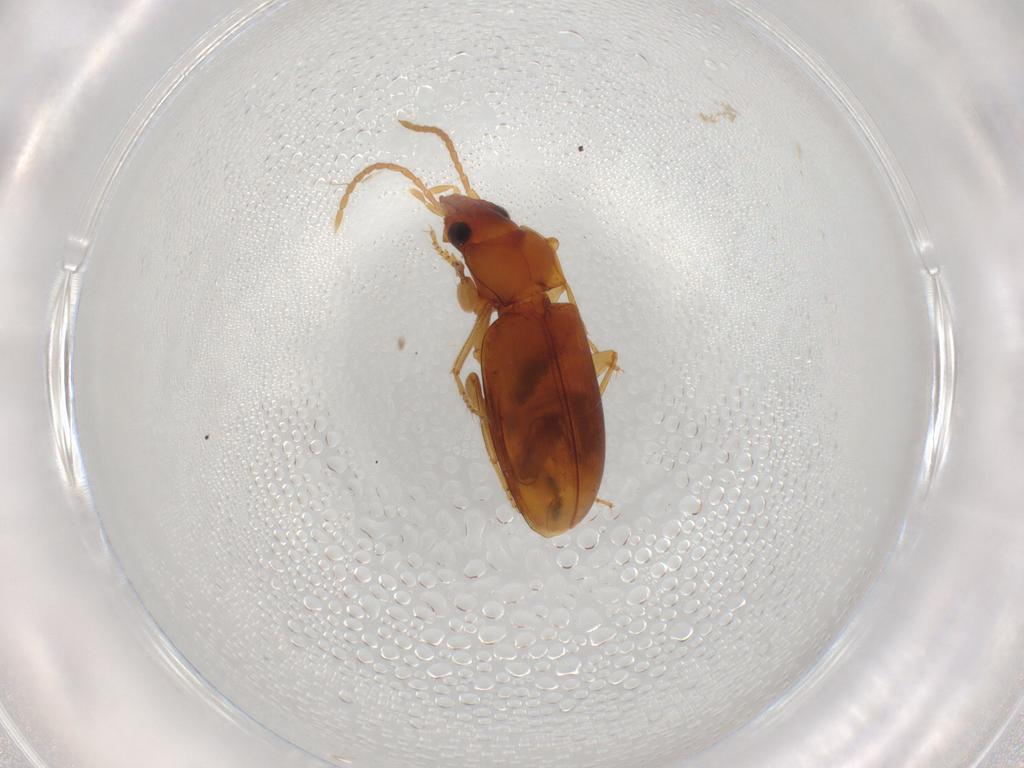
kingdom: Animalia
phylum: Arthropoda
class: Insecta
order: Coleoptera
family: Carabidae
